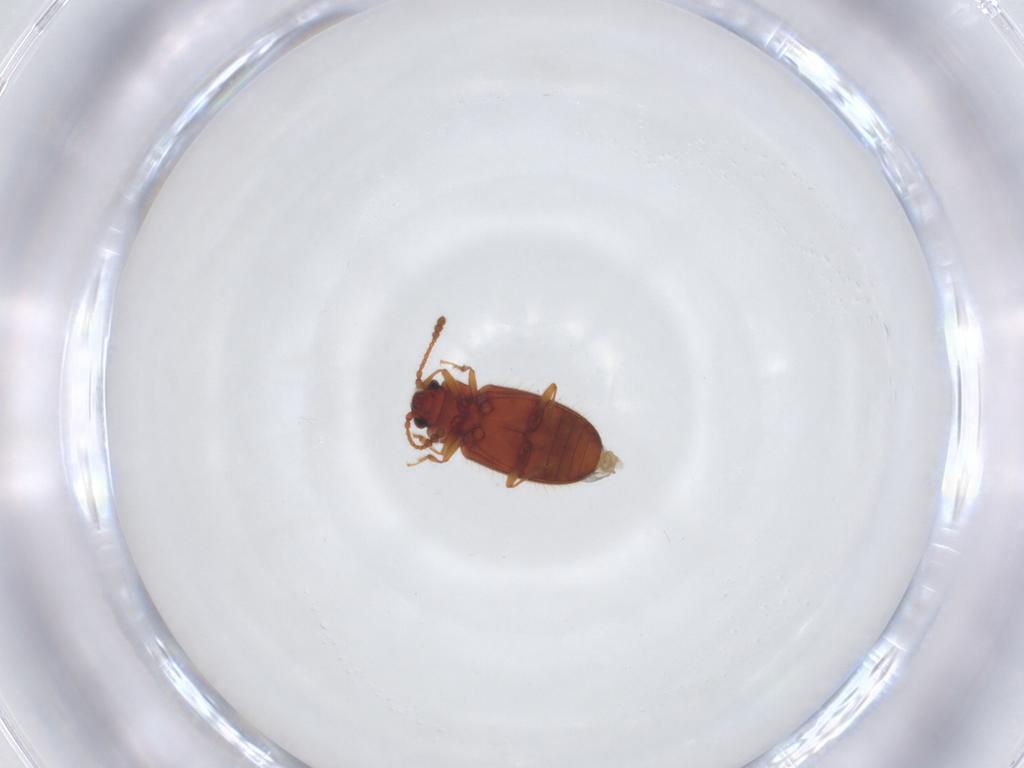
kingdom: Animalia
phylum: Arthropoda
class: Insecta
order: Coleoptera
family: Cryptophagidae
